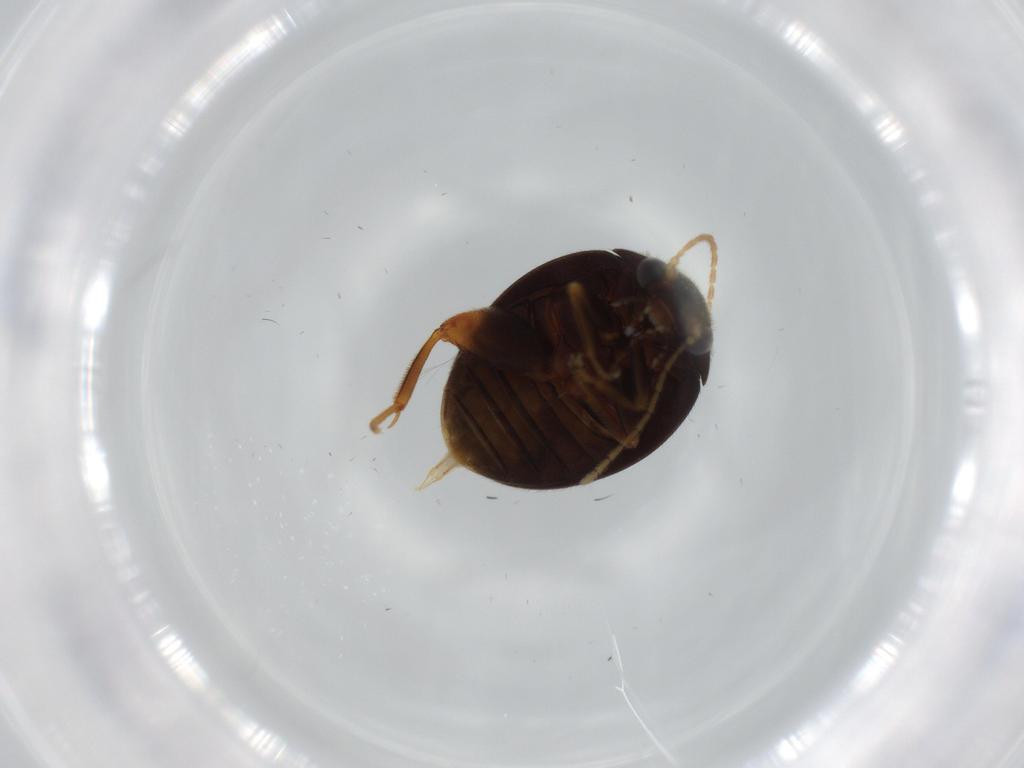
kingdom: Animalia
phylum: Arthropoda
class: Insecta
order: Coleoptera
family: Scirtidae
